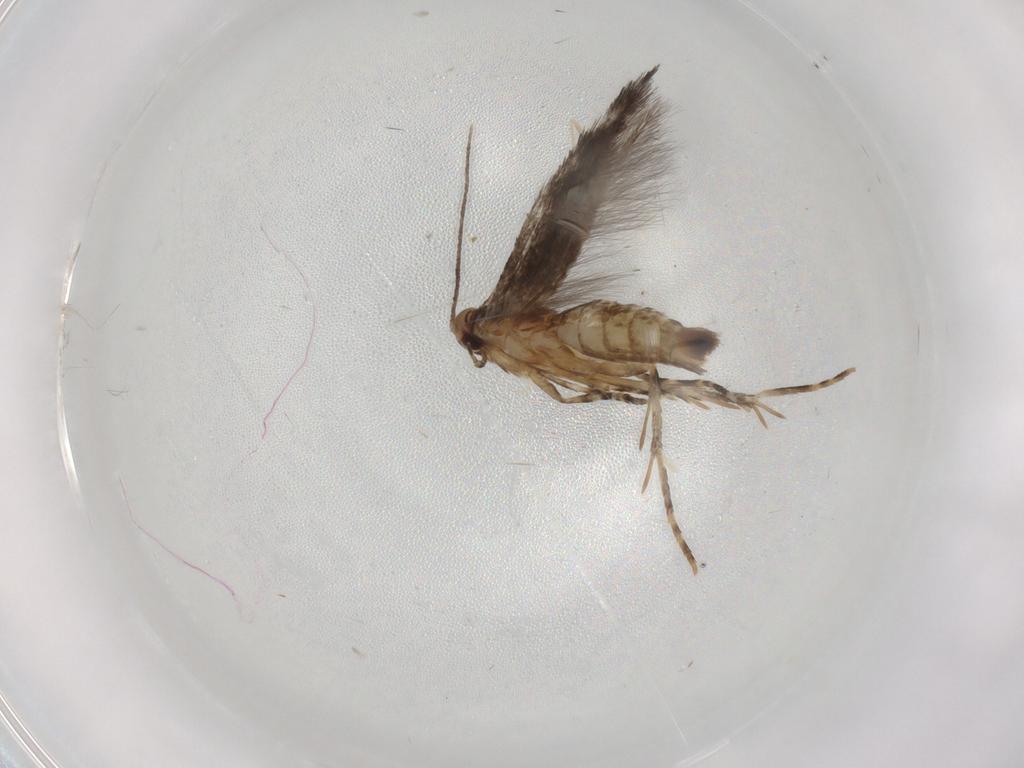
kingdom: Animalia
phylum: Arthropoda
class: Insecta
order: Lepidoptera
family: Elachistidae
